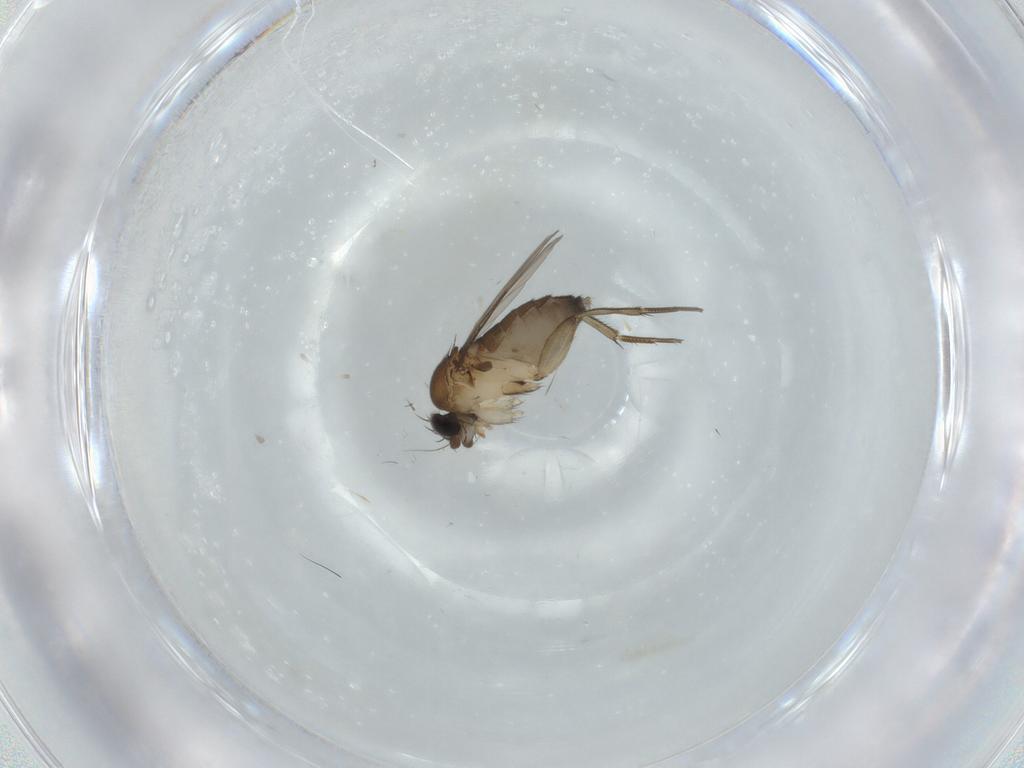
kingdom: Animalia
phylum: Arthropoda
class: Insecta
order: Diptera
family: Phoridae
